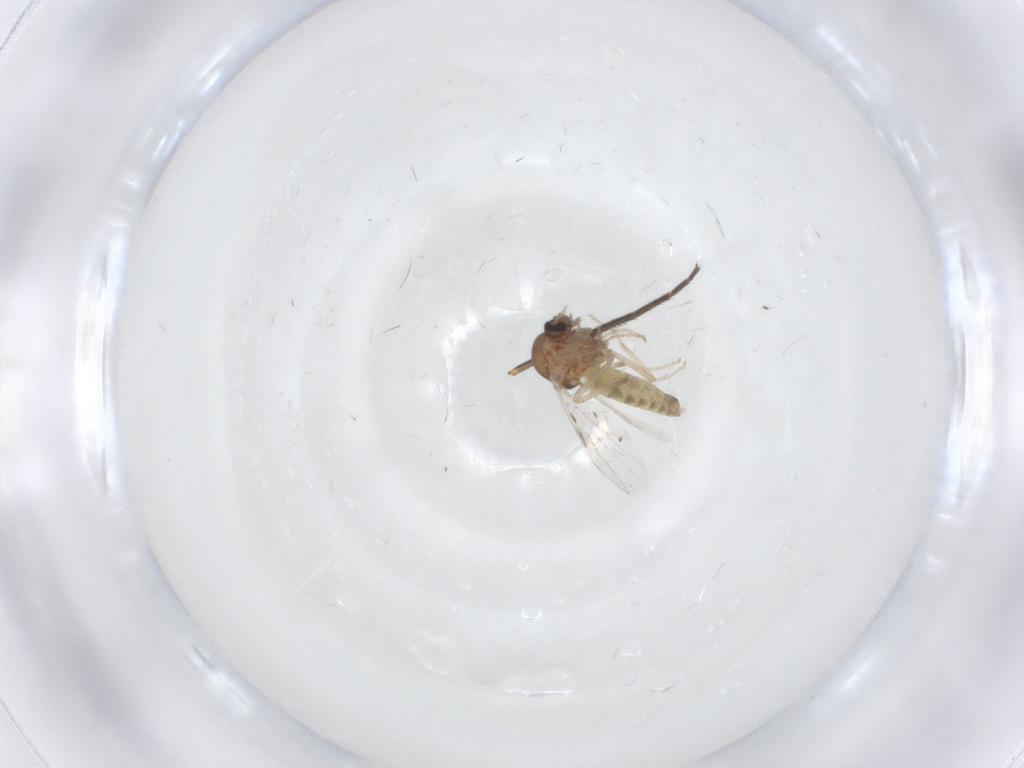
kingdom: Animalia
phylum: Arthropoda
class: Insecta
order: Diptera
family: Ceratopogonidae
